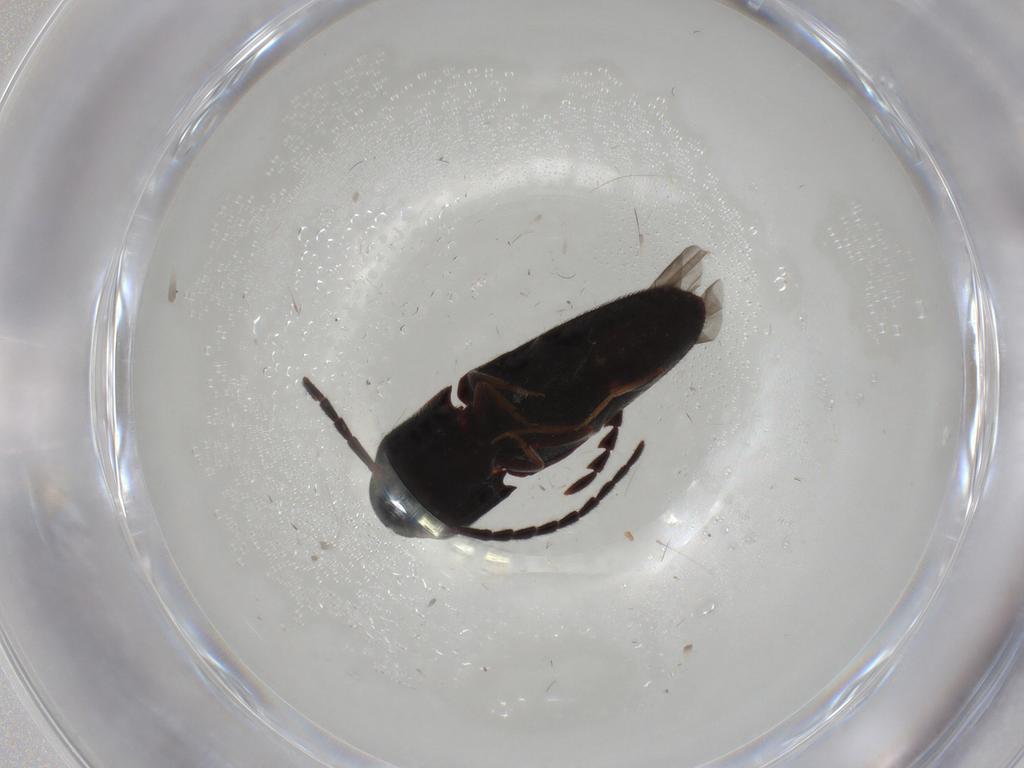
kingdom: Animalia
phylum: Arthropoda
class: Insecta
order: Coleoptera
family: Eucnemidae
